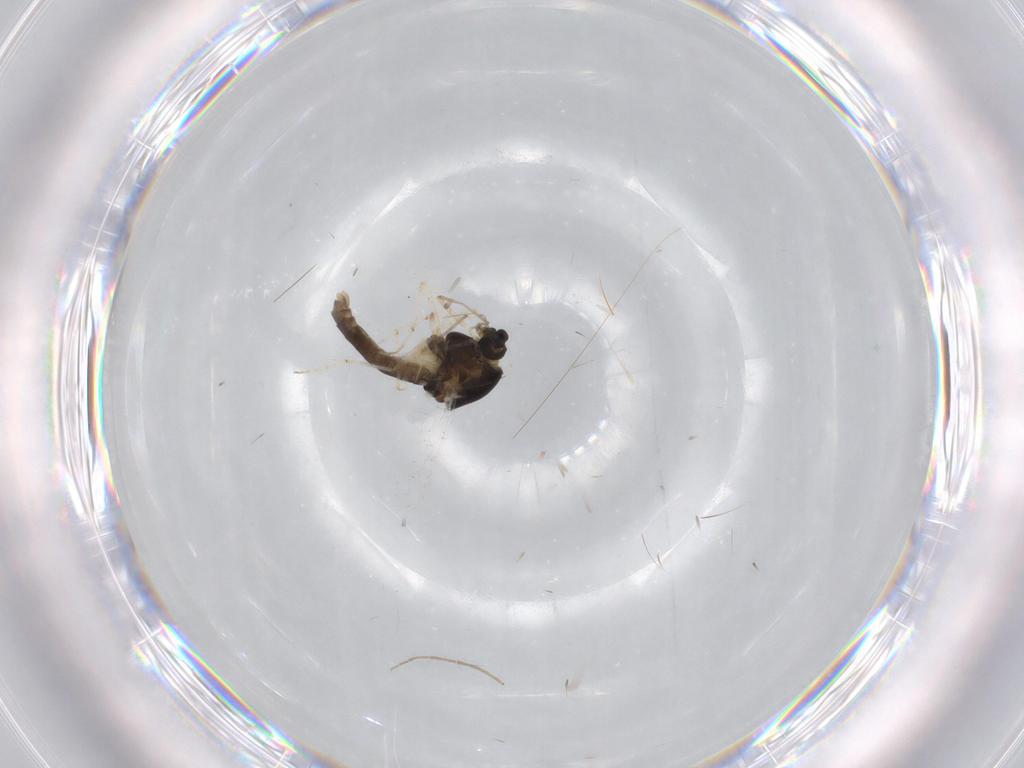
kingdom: Animalia
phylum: Arthropoda
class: Insecta
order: Diptera
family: Chironomidae
